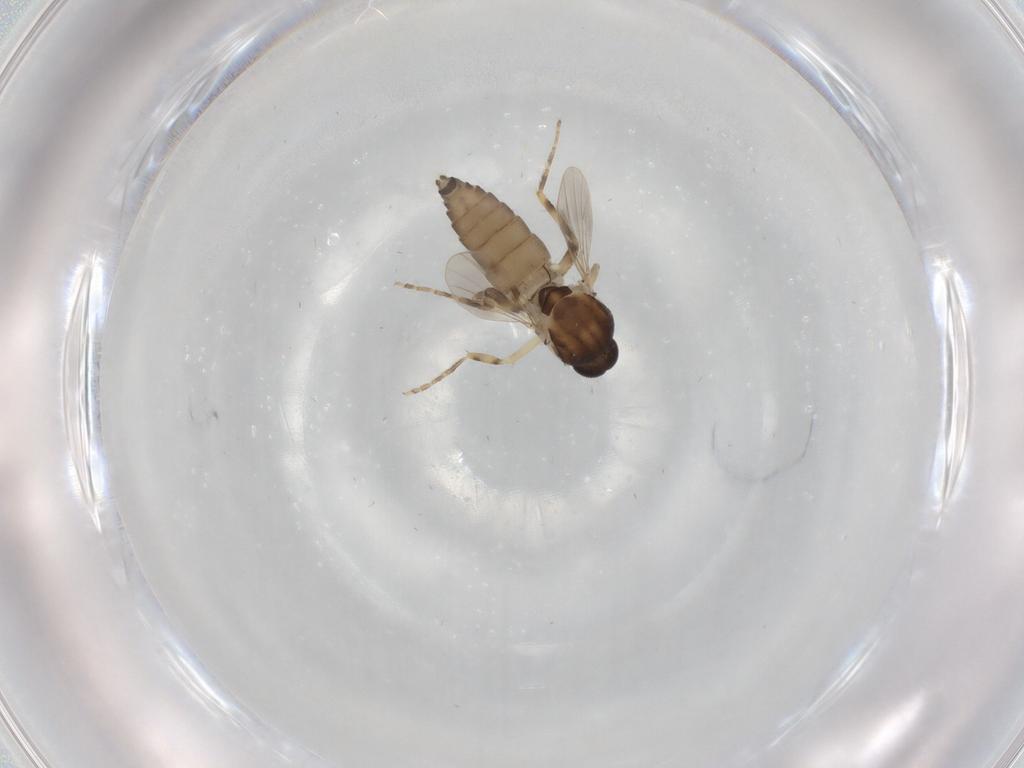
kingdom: Animalia
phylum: Arthropoda
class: Insecta
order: Diptera
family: Ceratopogonidae
